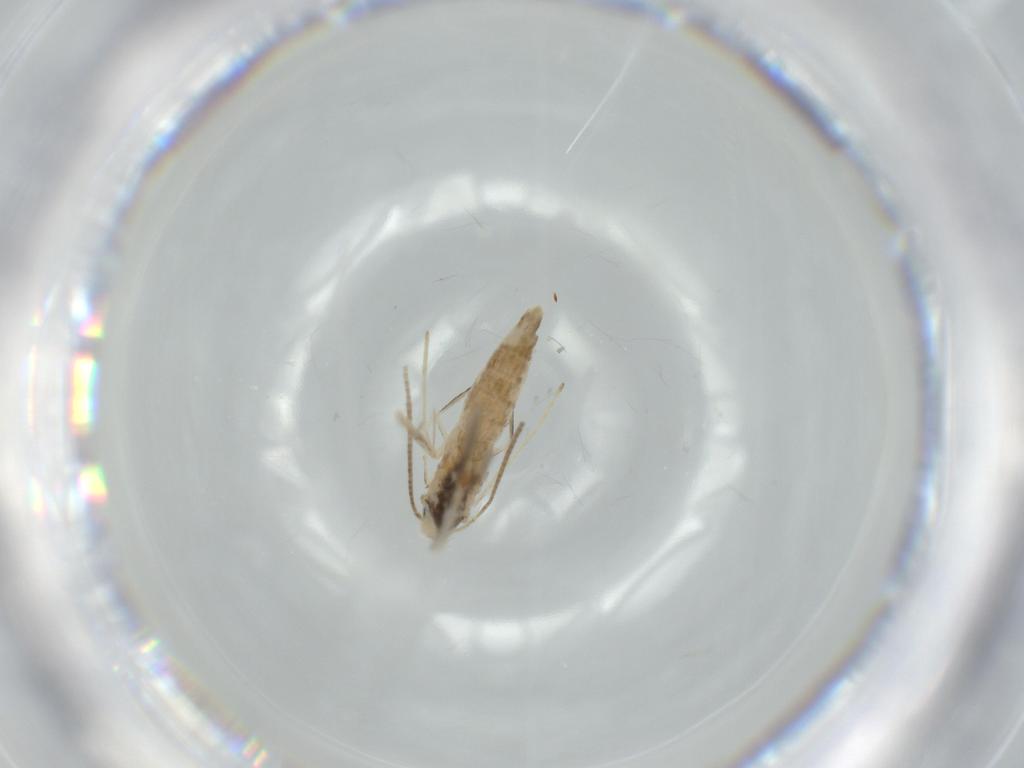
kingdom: Animalia
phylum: Arthropoda
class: Insecta
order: Lepidoptera
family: Gracillariidae
